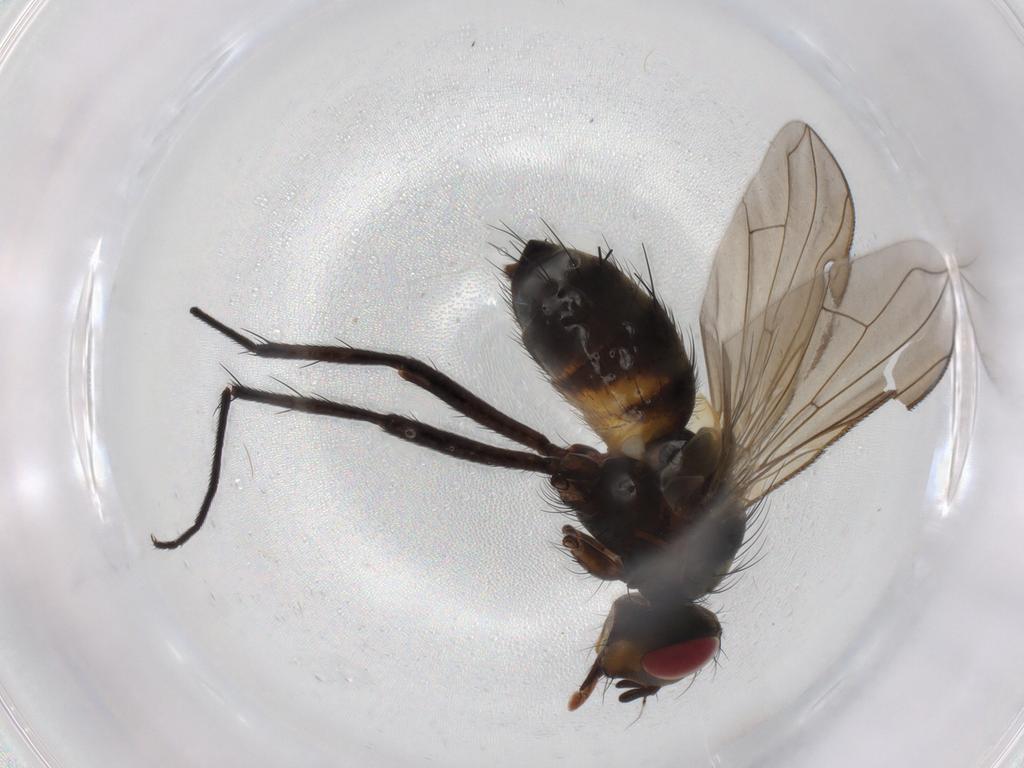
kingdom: Animalia
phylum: Arthropoda
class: Insecta
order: Diptera
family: Tachinidae
